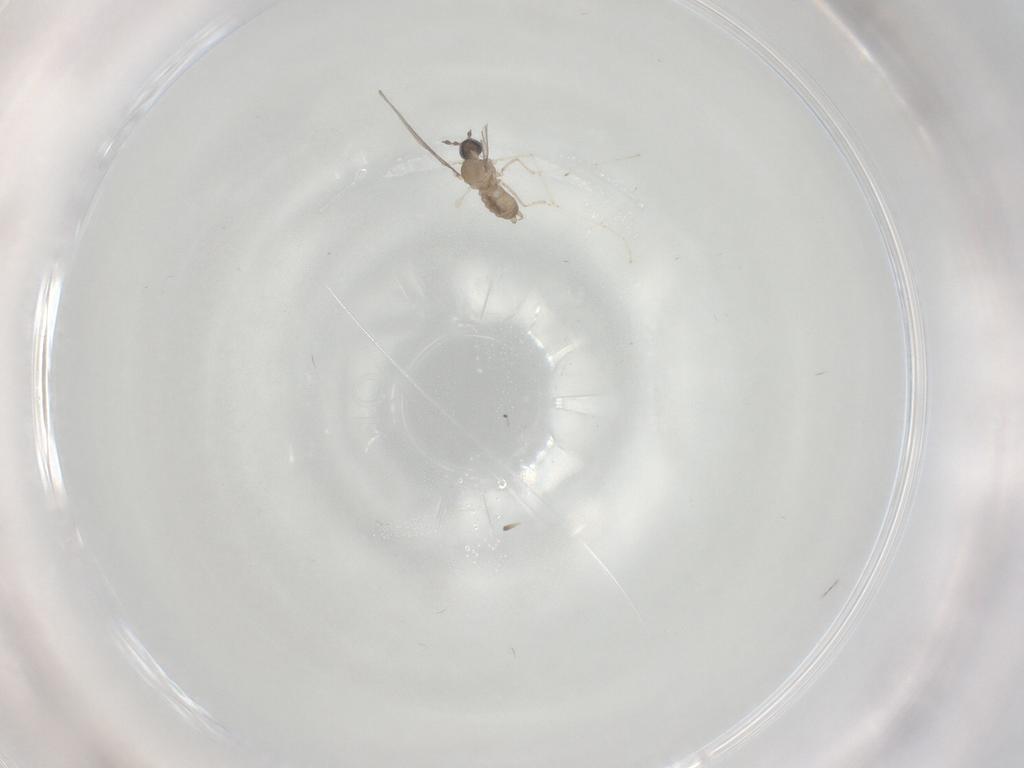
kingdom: Animalia
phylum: Arthropoda
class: Insecta
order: Diptera
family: Cecidomyiidae
